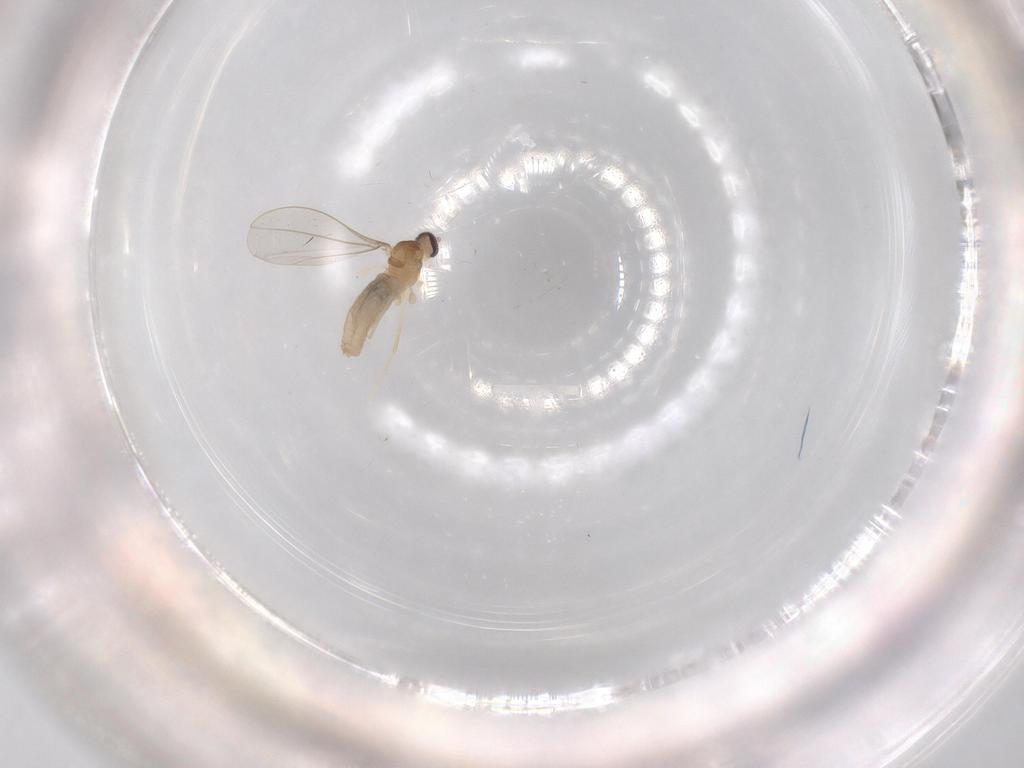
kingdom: Animalia
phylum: Arthropoda
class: Insecta
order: Diptera
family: Cecidomyiidae
